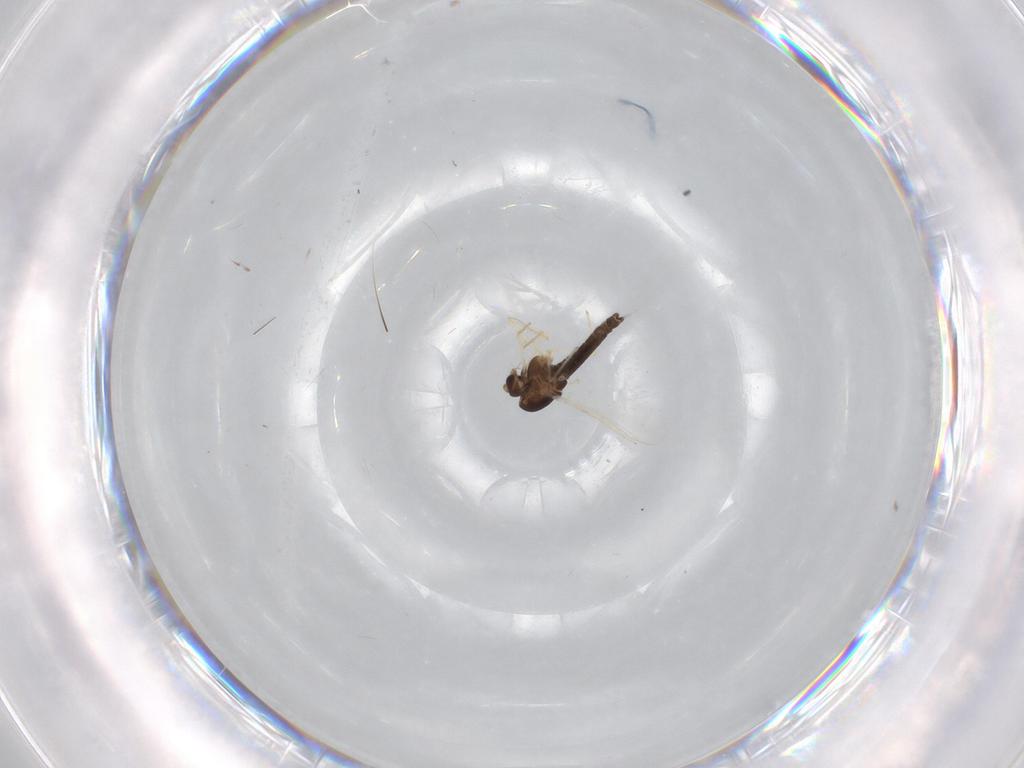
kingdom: Animalia
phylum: Arthropoda
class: Insecta
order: Diptera
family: Chironomidae
